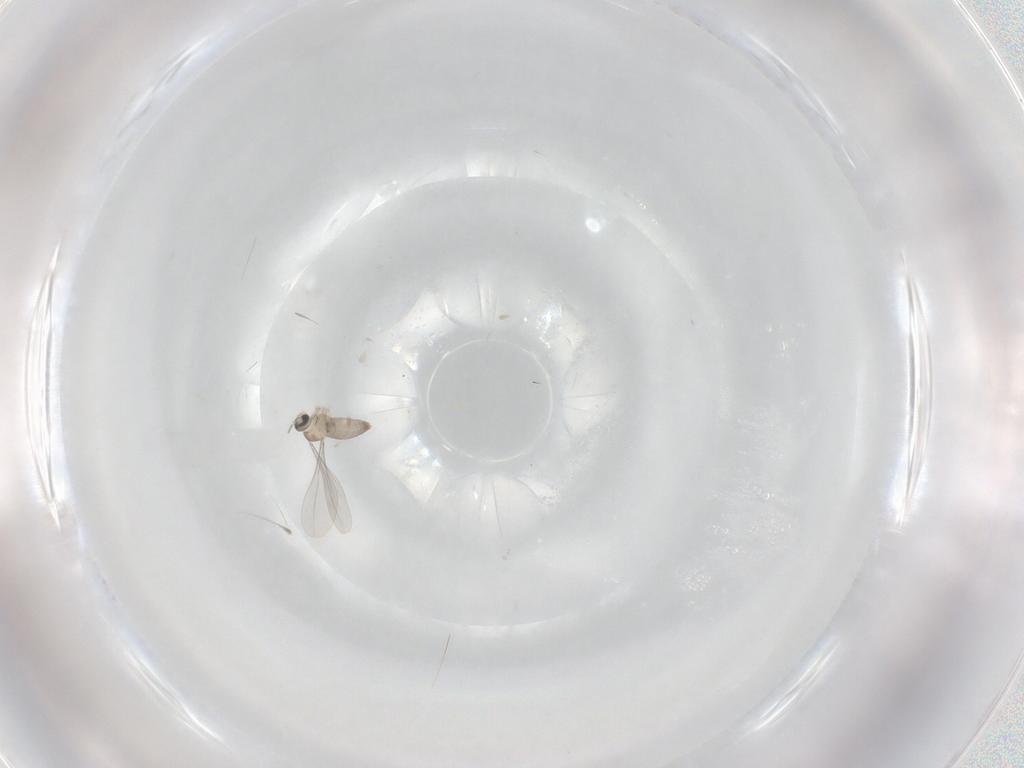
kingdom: Animalia
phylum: Arthropoda
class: Insecta
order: Diptera
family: Cecidomyiidae
